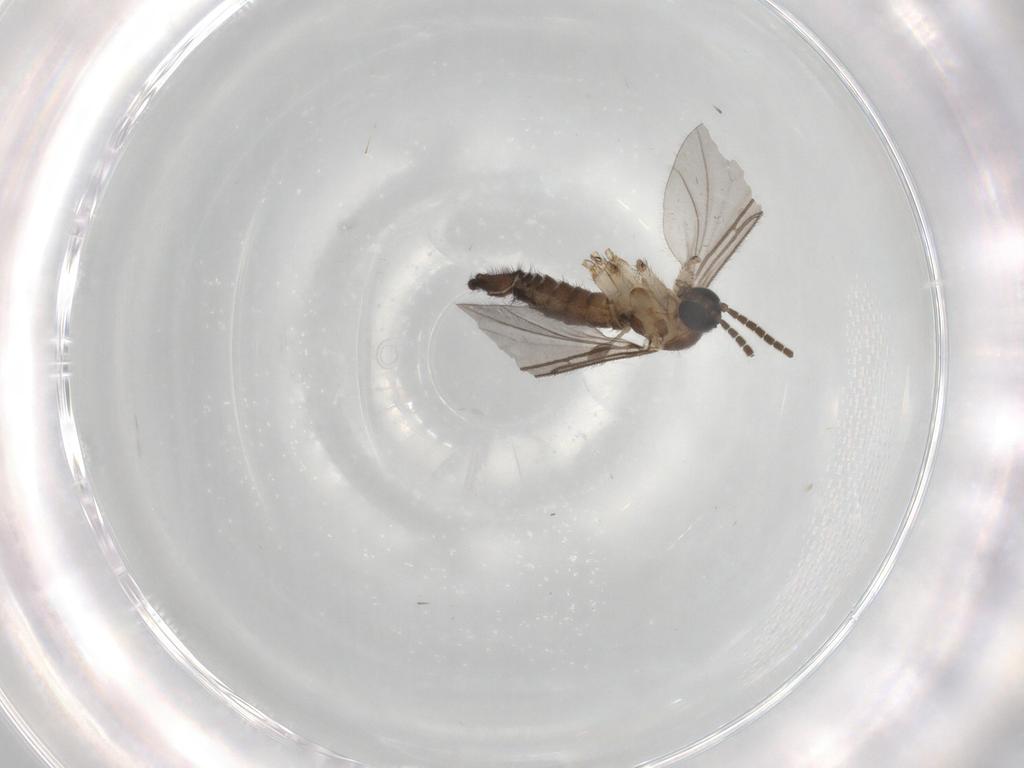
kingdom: Animalia
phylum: Arthropoda
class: Insecta
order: Diptera
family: Sciaridae
